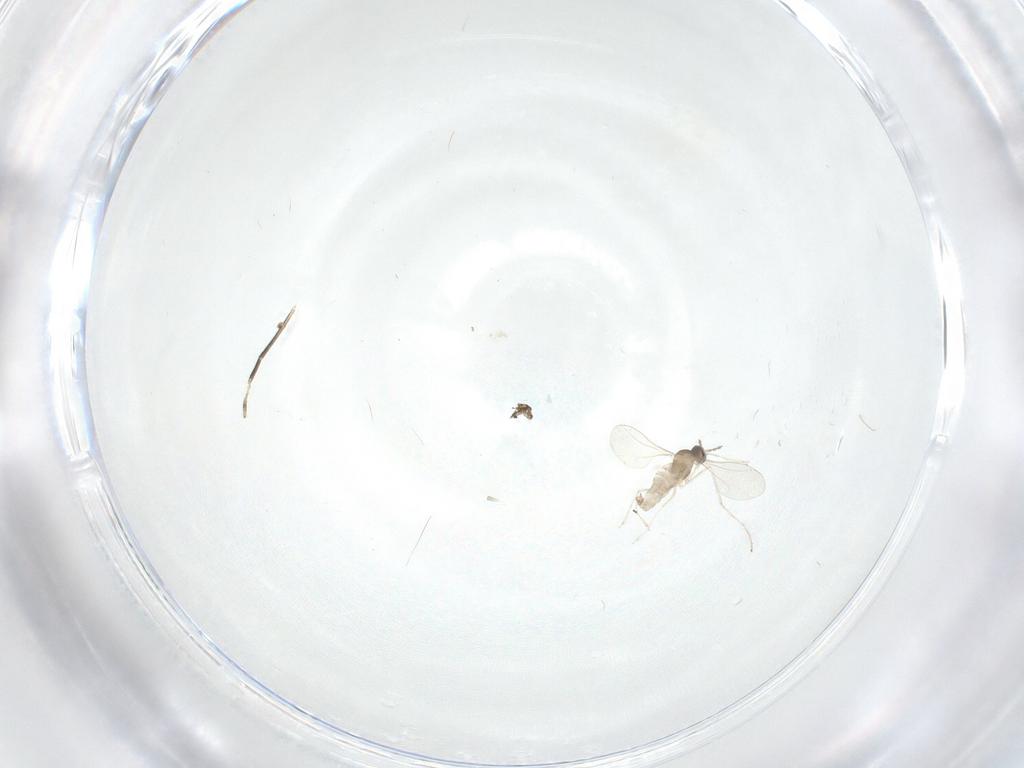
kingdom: Animalia
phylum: Arthropoda
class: Insecta
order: Diptera
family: Cecidomyiidae
